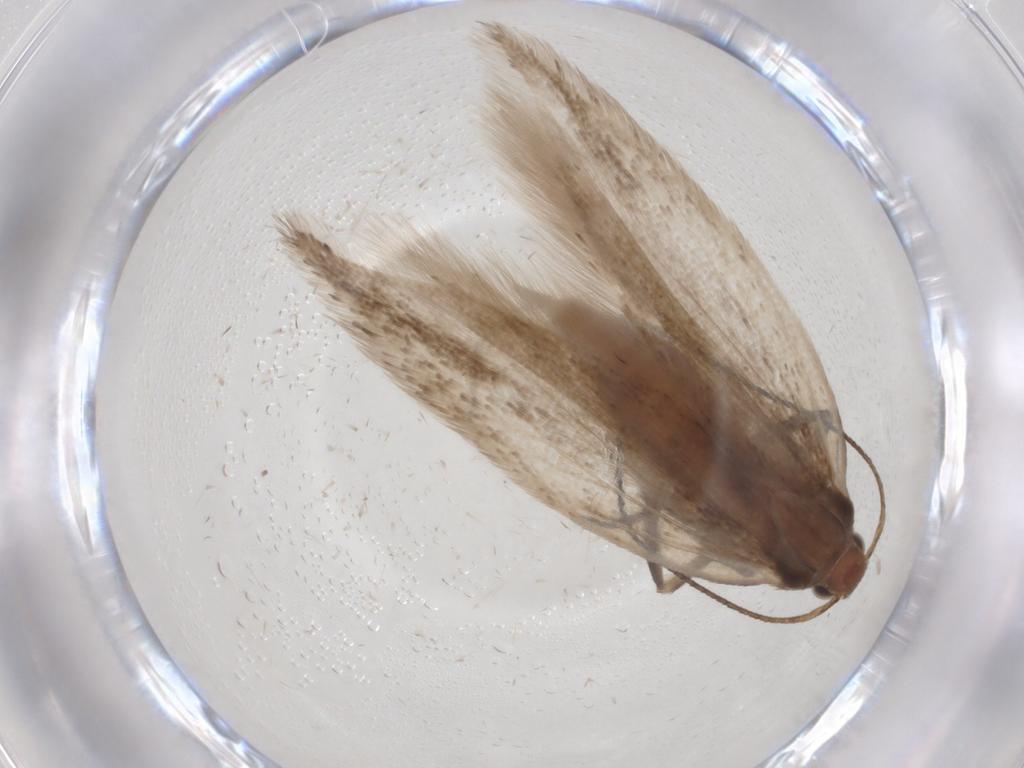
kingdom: Animalia
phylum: Arthropoda
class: Insecta
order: Lepidoptera
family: Gelechiidae
